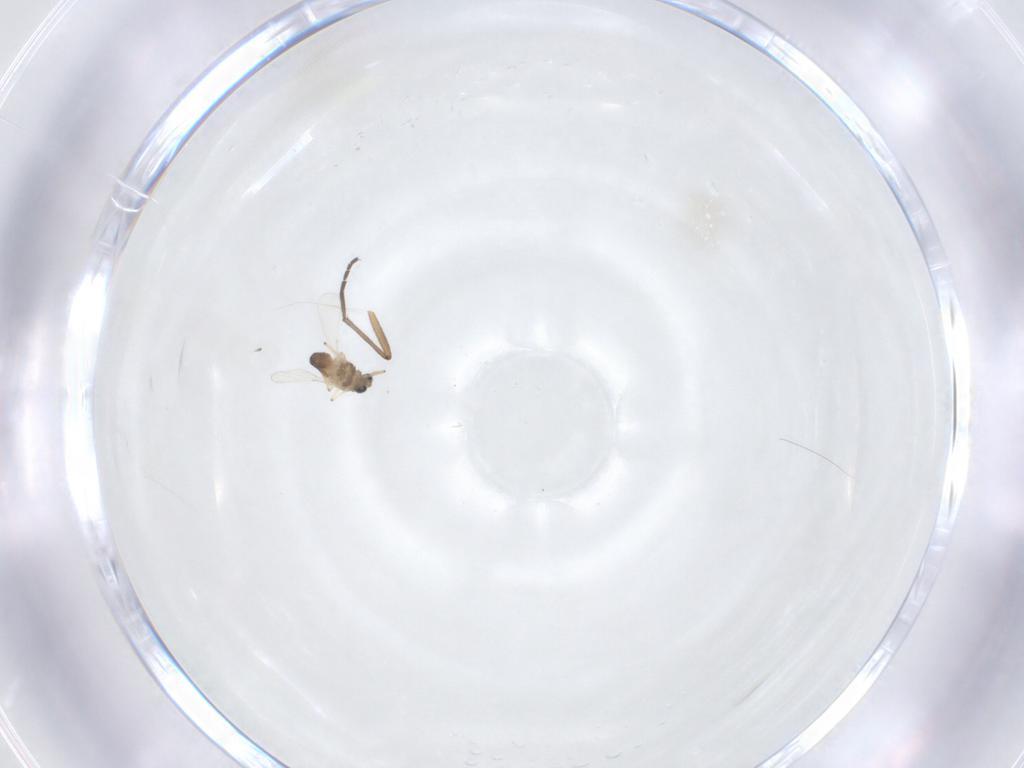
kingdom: Animalia
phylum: Arthropoda
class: Insecta
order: Diptera
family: Chironomidae
